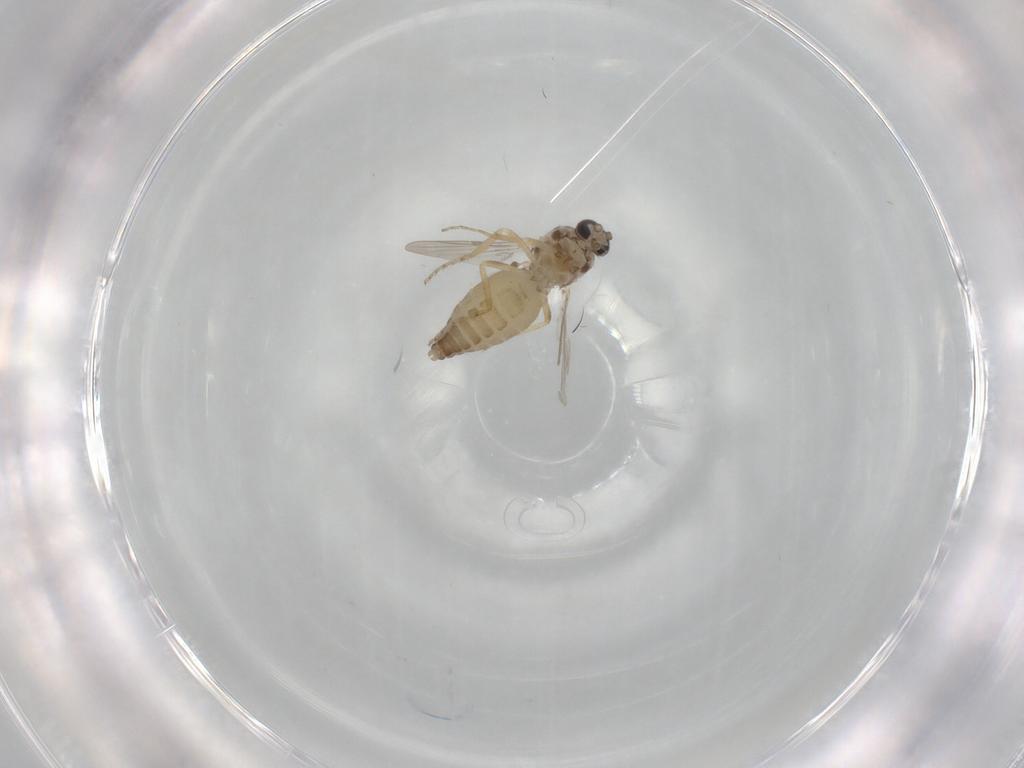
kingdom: Animalia
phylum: Arthropoda
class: Insecta
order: Diptera
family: Ceratopogonidae
